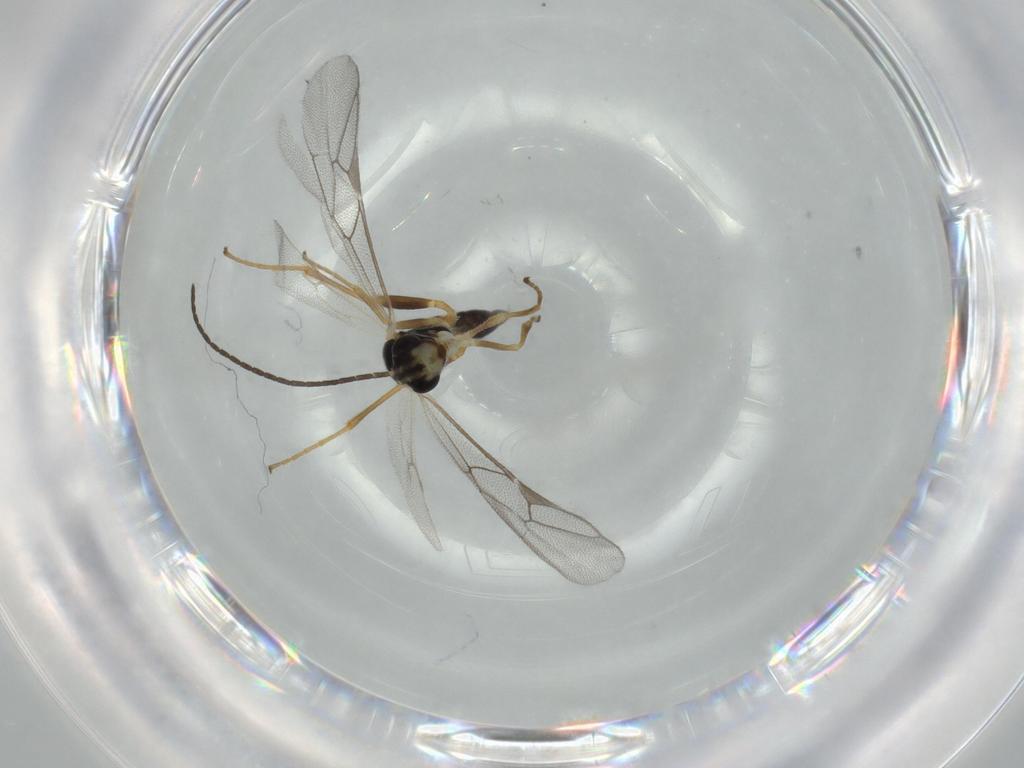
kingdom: Animalia
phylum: Arthropoda
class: Insecta
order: Hymenoptera
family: Ichneumonidae
